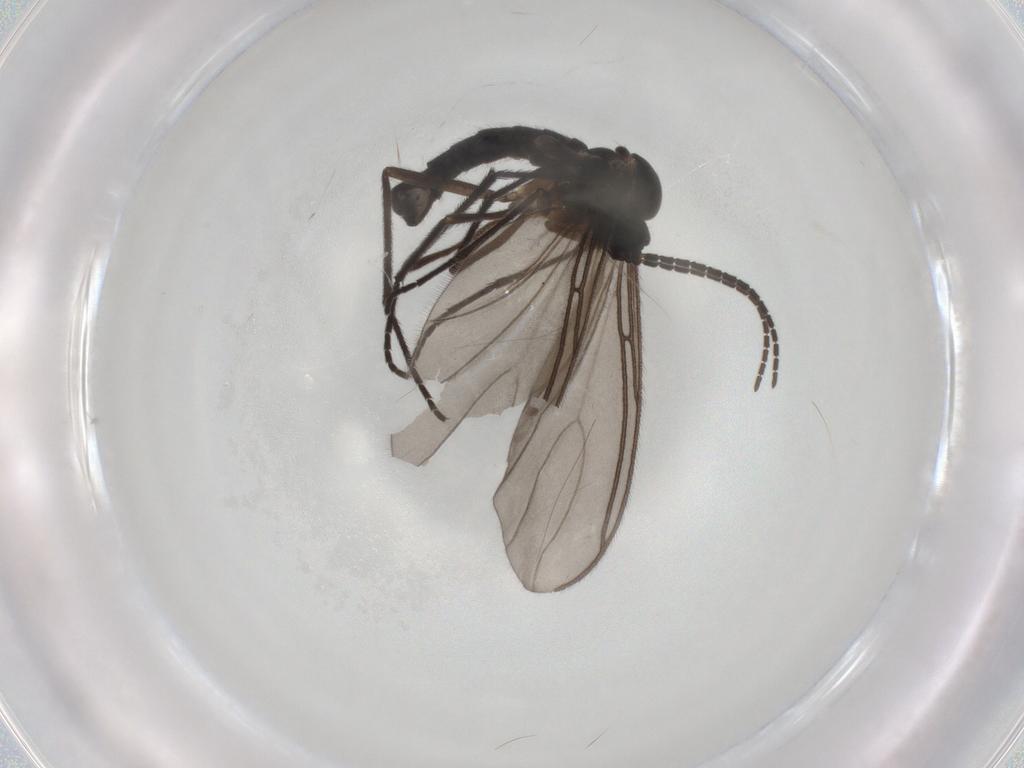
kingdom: Animalia
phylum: Arthropoda
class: Insecta
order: Diptera
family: Sciaridae
